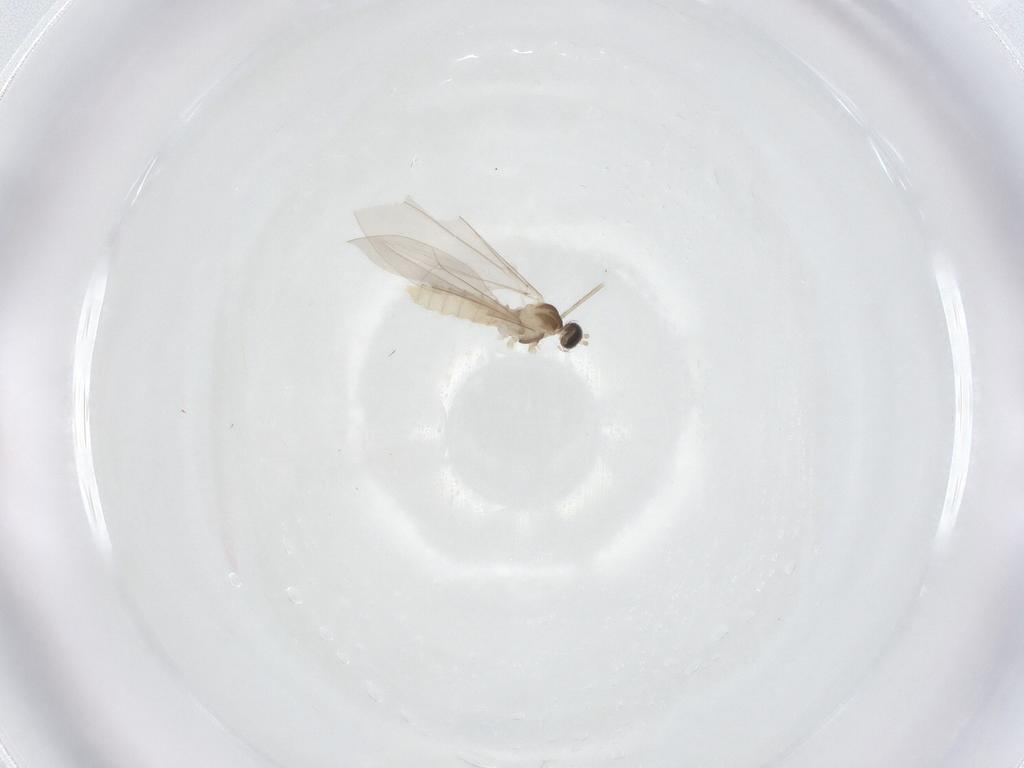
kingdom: Animalia
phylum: Arthropoda
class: Insecta
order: Diptera
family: Cecidomyiidae
